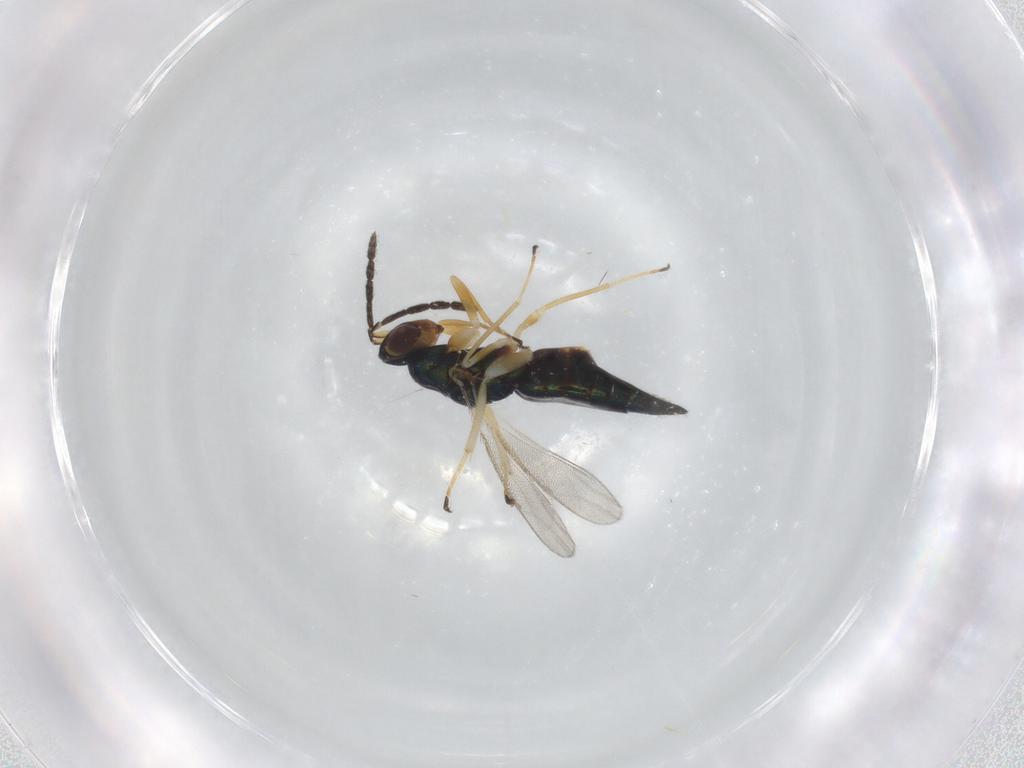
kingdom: Animalia
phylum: Arthropoda
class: Insecta
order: Hymenoptera
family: Eulophidae
